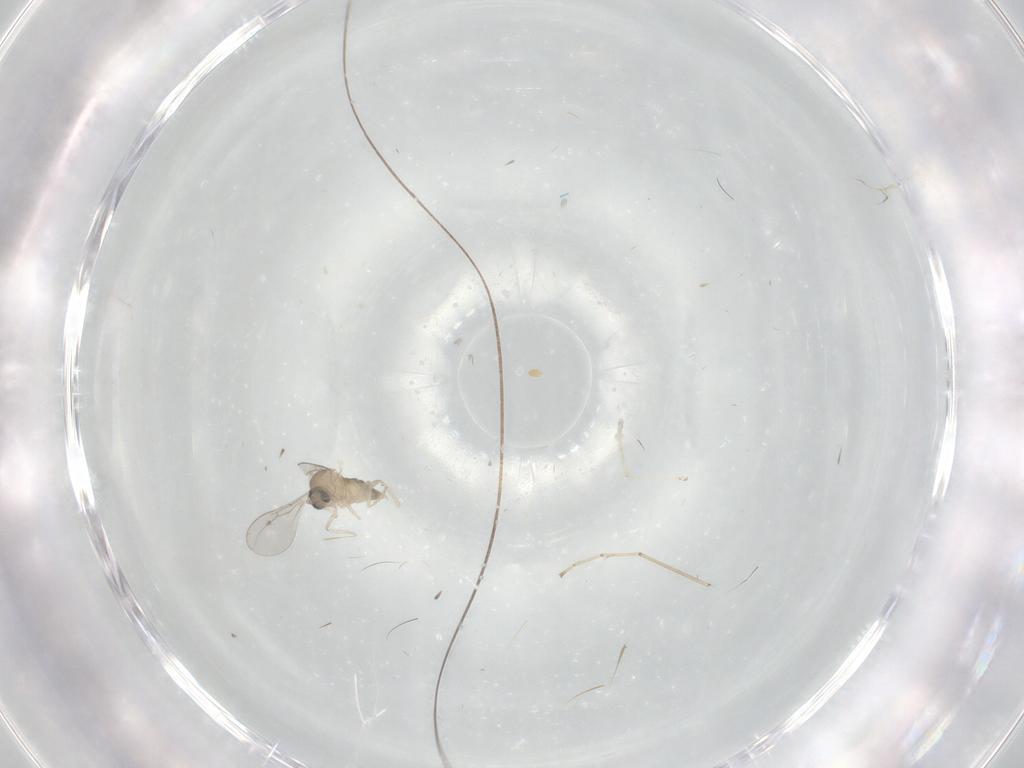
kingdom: Animalia
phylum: Arthropoda
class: Insecta
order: Diptera
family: Cecidomyiidae
